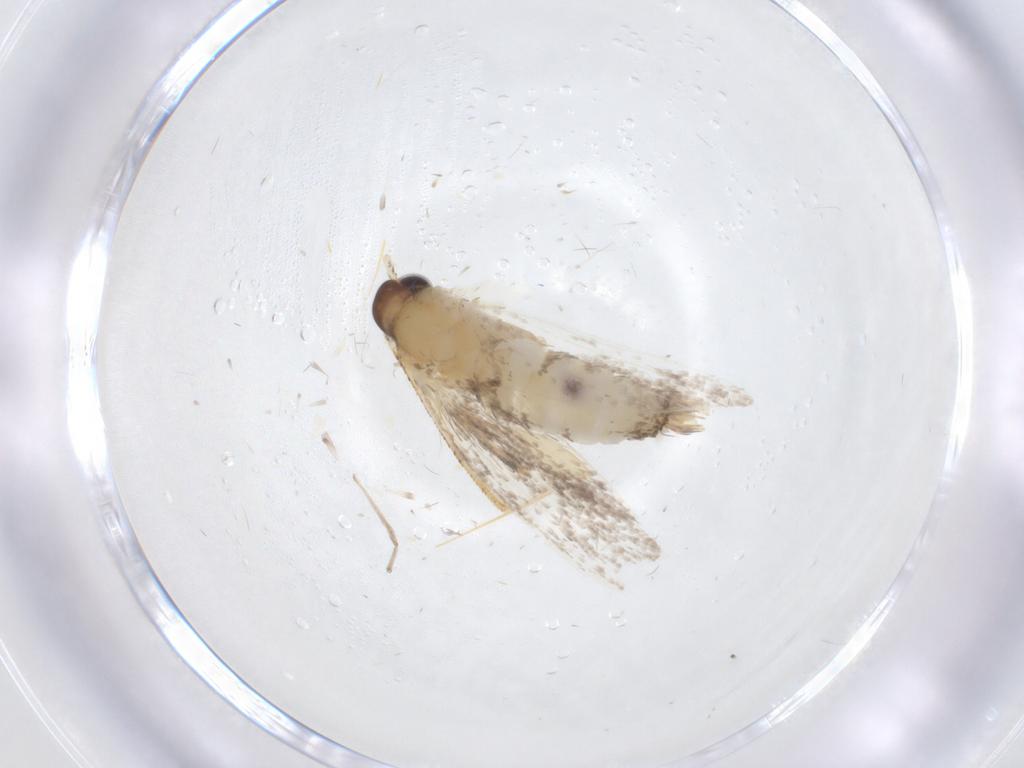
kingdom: Animalia
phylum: Arthropoda
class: Insecta
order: Lepidoptera
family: Oecophoridae
